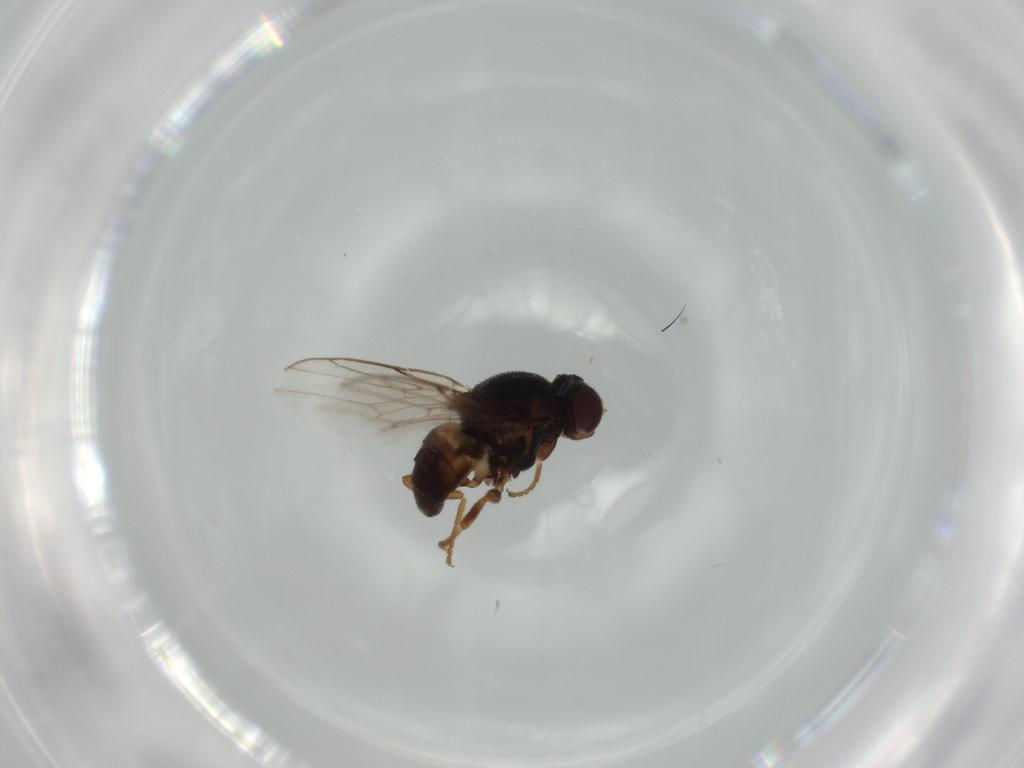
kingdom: Animalia
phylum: Arthropoda
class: Insecta
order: Diptera
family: Chloropidae
